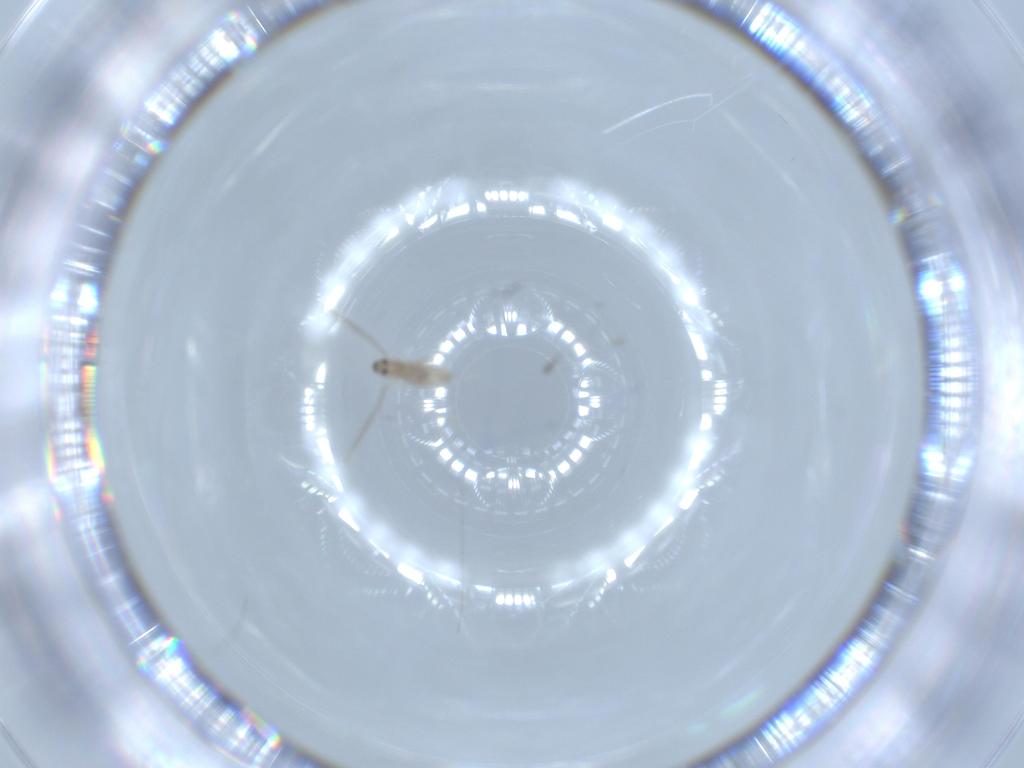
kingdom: Animalia
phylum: Arthropoda
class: Insecta
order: Diptera
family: Cecidomyiidae
